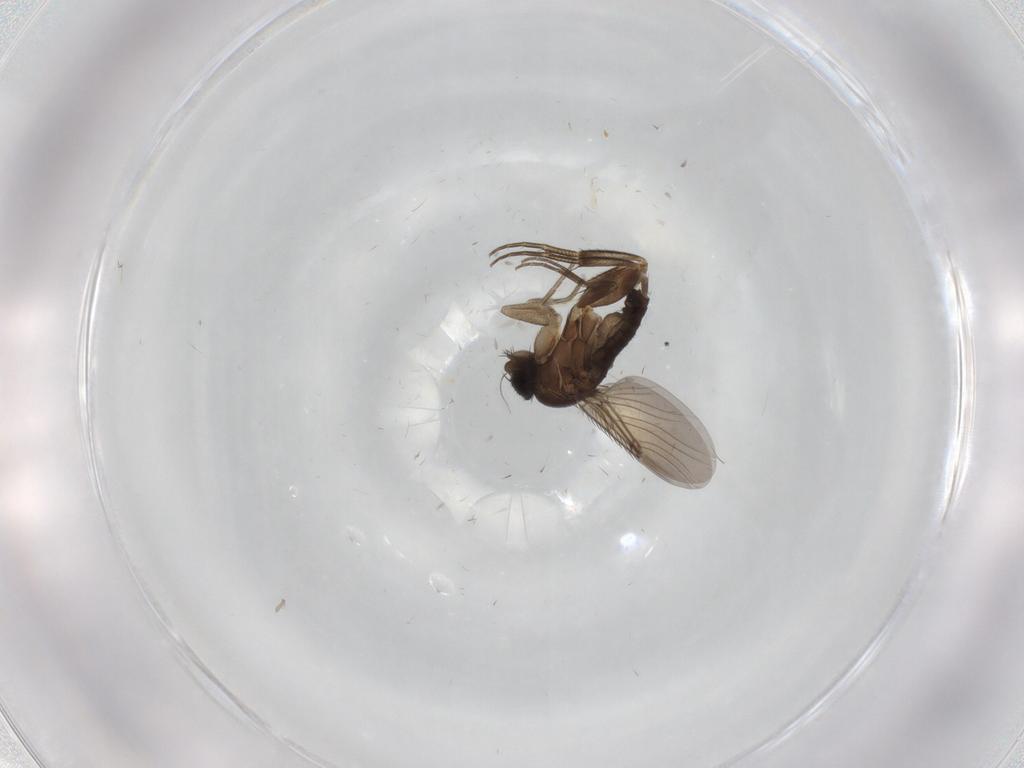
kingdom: Animalia
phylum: Arthropoda
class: Insecta
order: Diptera
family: Phoridae
